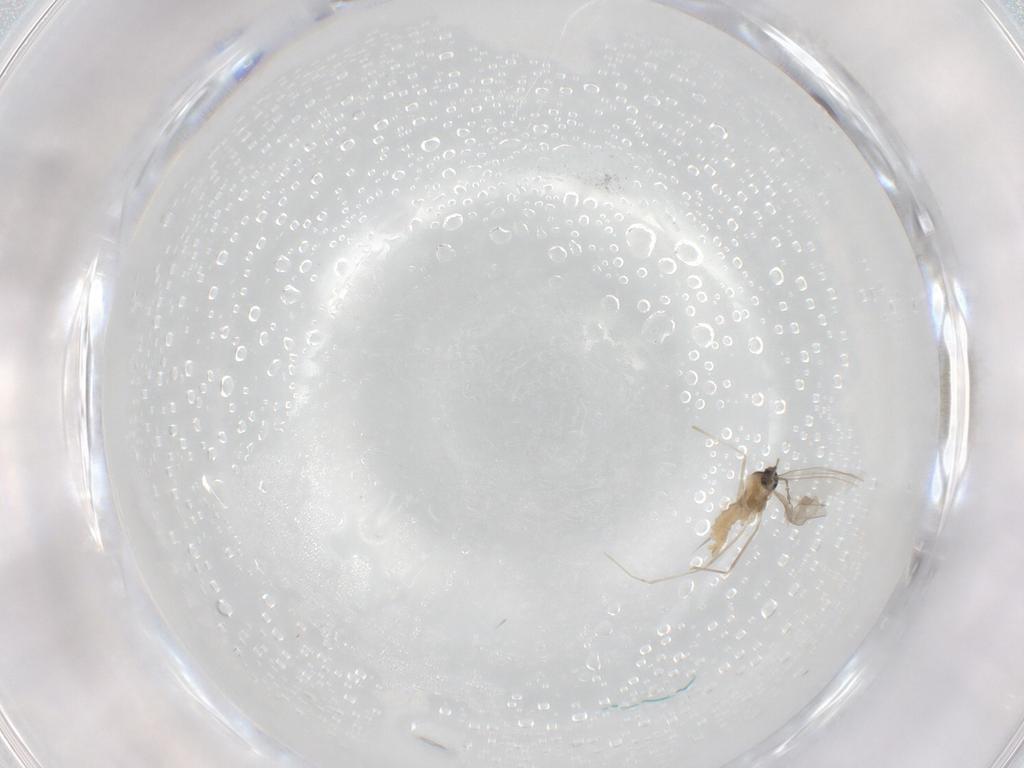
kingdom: Animalia
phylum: Arthropoda
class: Insecta
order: Diptera
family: Cecidomyiidae
